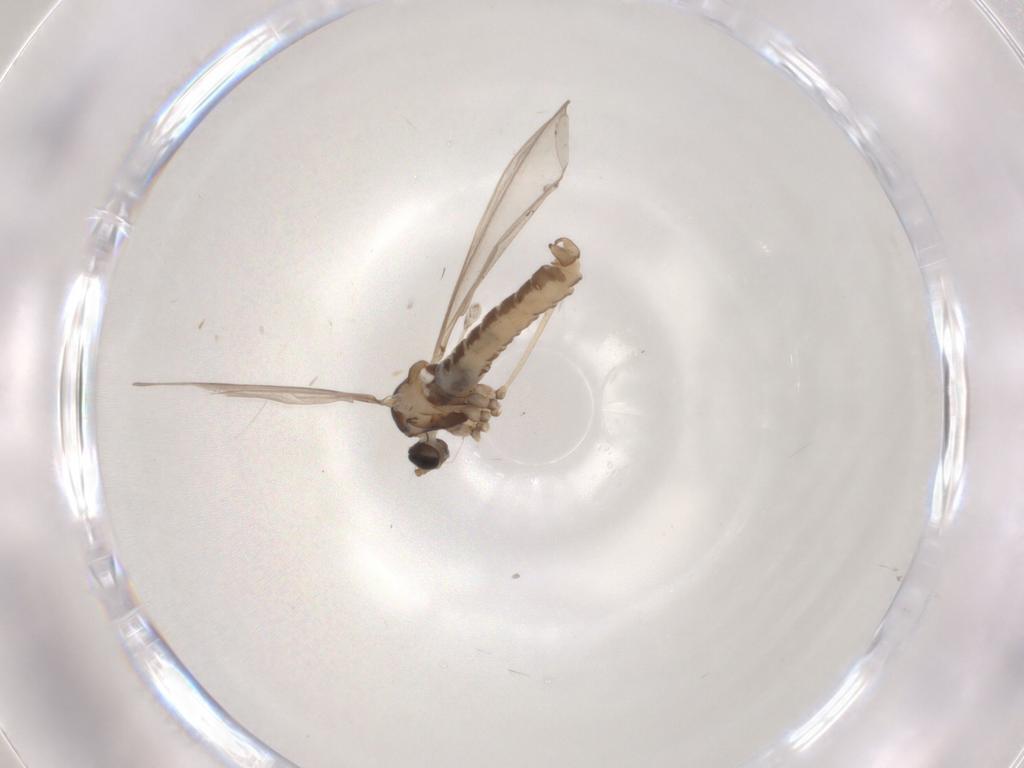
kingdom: Animalia
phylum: Arthropoda
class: Insecta
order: Diptera
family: Cecidomyiidae
